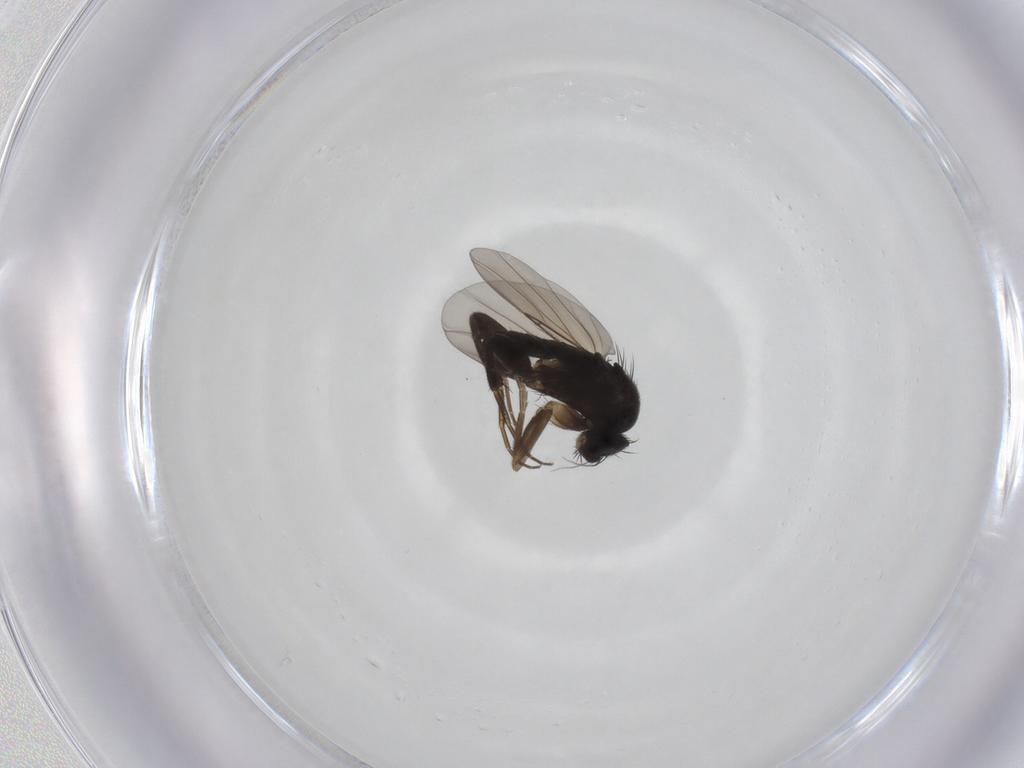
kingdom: Animalia
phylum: Arthropoda
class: Insecta
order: Diptera
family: Phoridae
